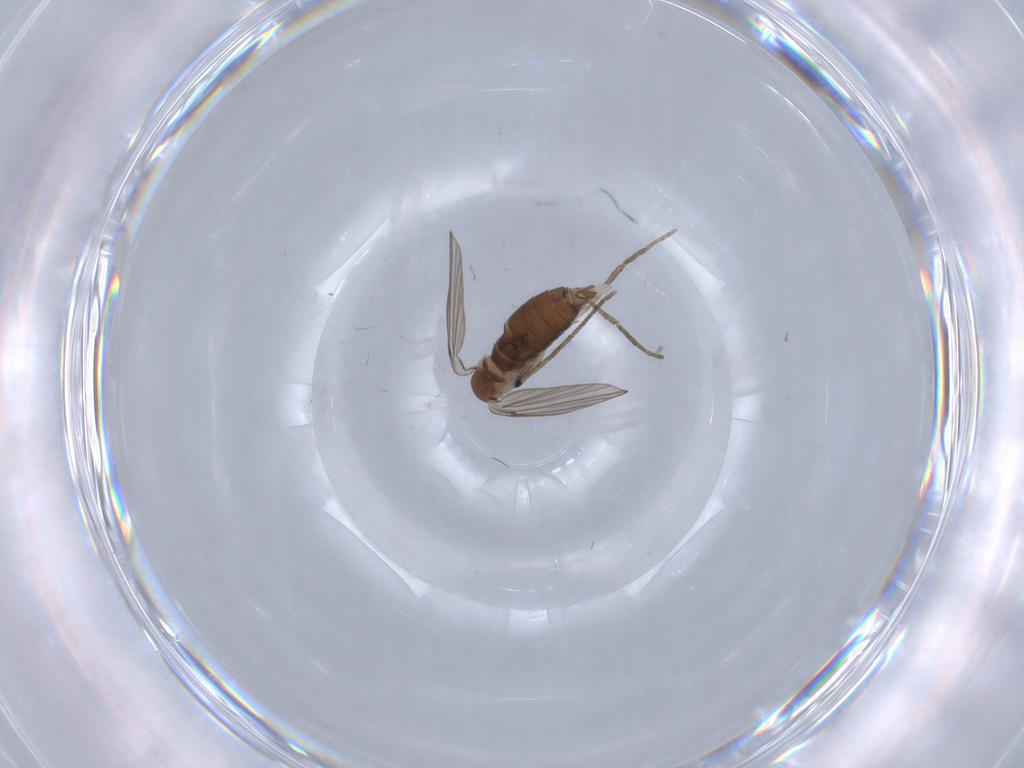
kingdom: Animalia
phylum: Arthropoda
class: Insecta
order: Diptera
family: Psychodidae
